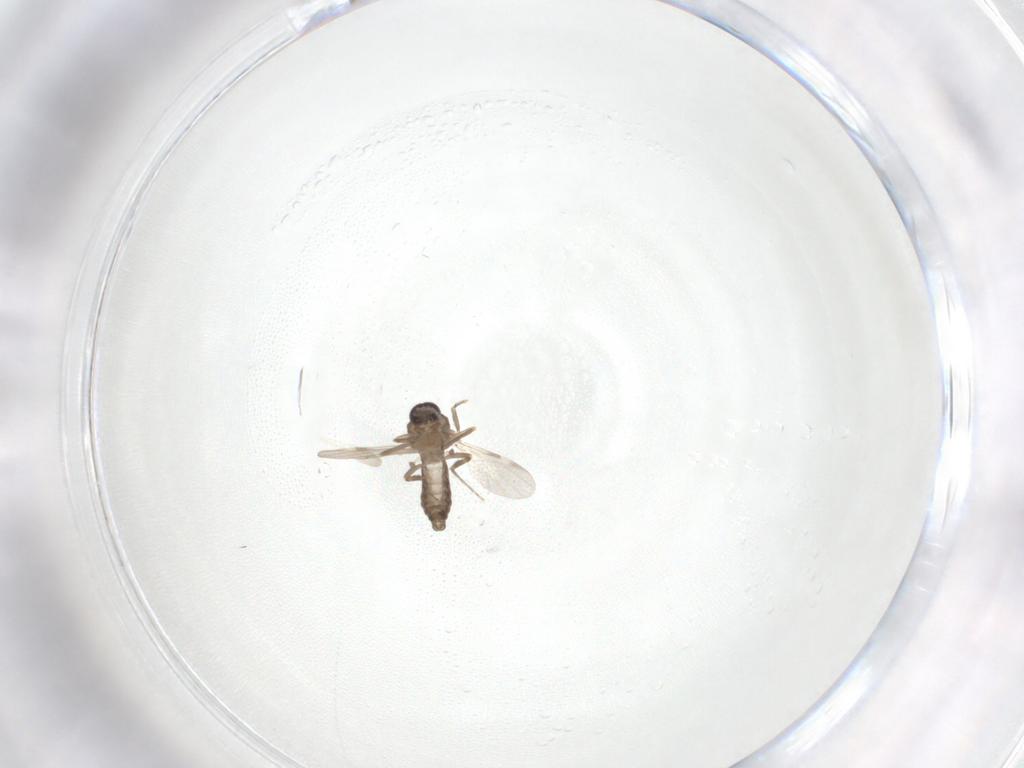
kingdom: Animalia
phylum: Arthropoda
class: Insecta
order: Diptera
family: Ceratopogonidae
